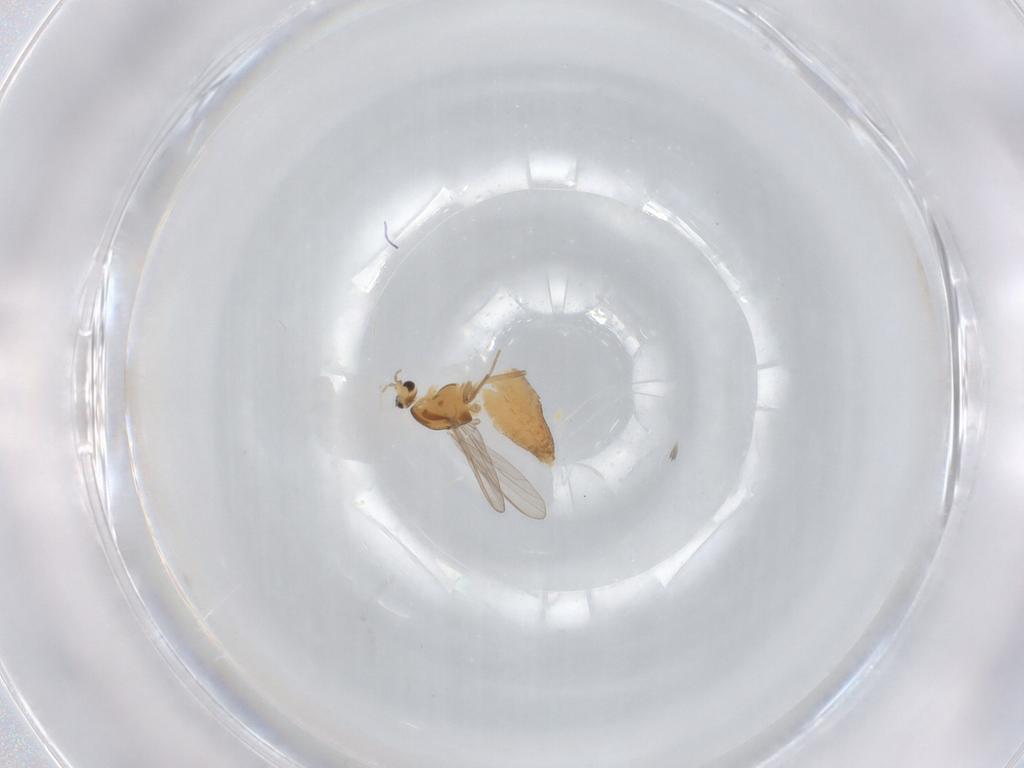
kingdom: Animalia
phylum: Arthropoda
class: Insecta
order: Diptera
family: Chironomidae
